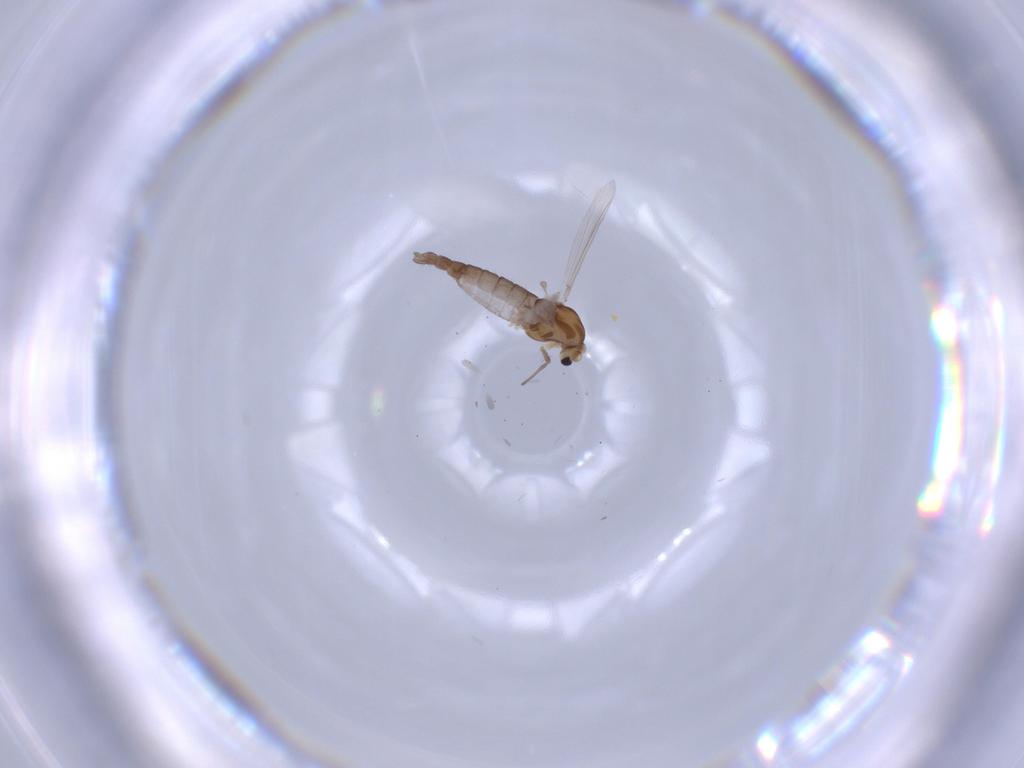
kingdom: Animalia
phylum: Arthropoda
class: Insecta
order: Diptera
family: Chironomidae
